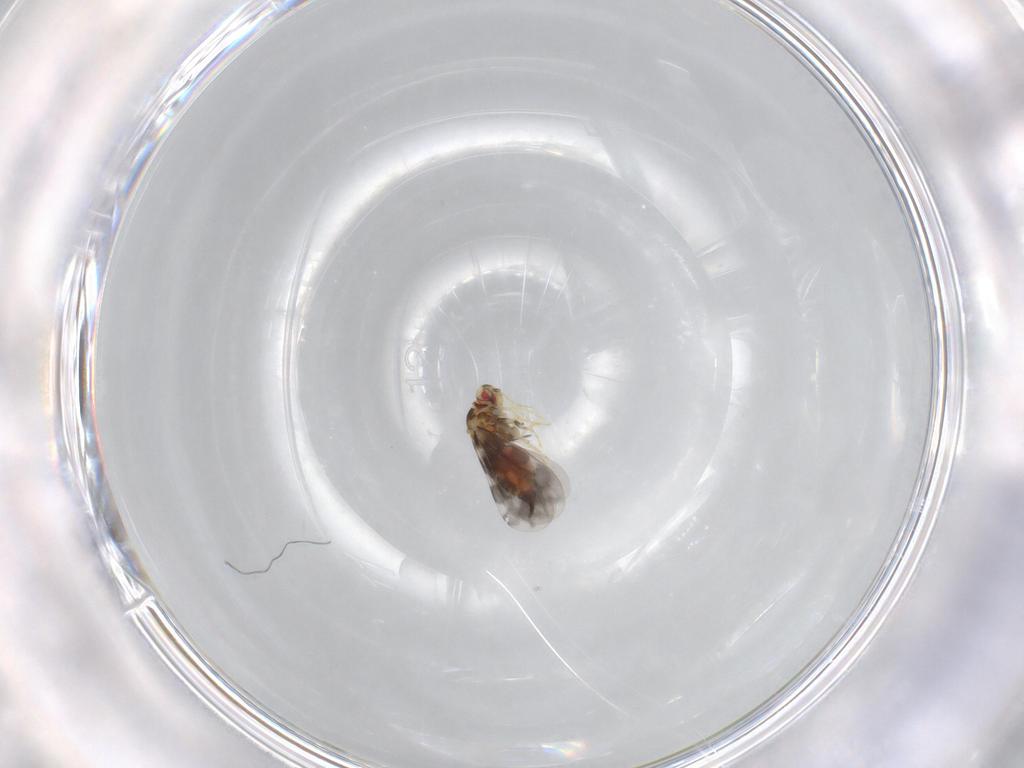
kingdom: Animalia
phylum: Arthropoda
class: Insecta
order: Hemiptera
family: Aleyrodidae
